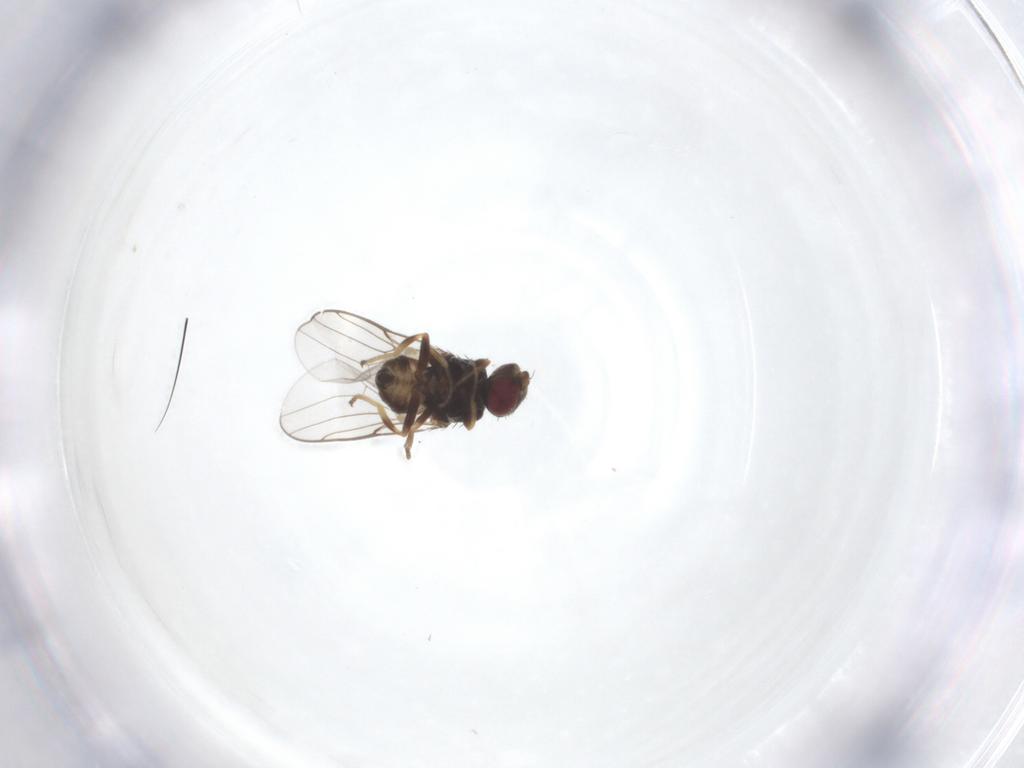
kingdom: Animalia
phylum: Arthropoda
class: Insecta
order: Diptera
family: Chloropidae
